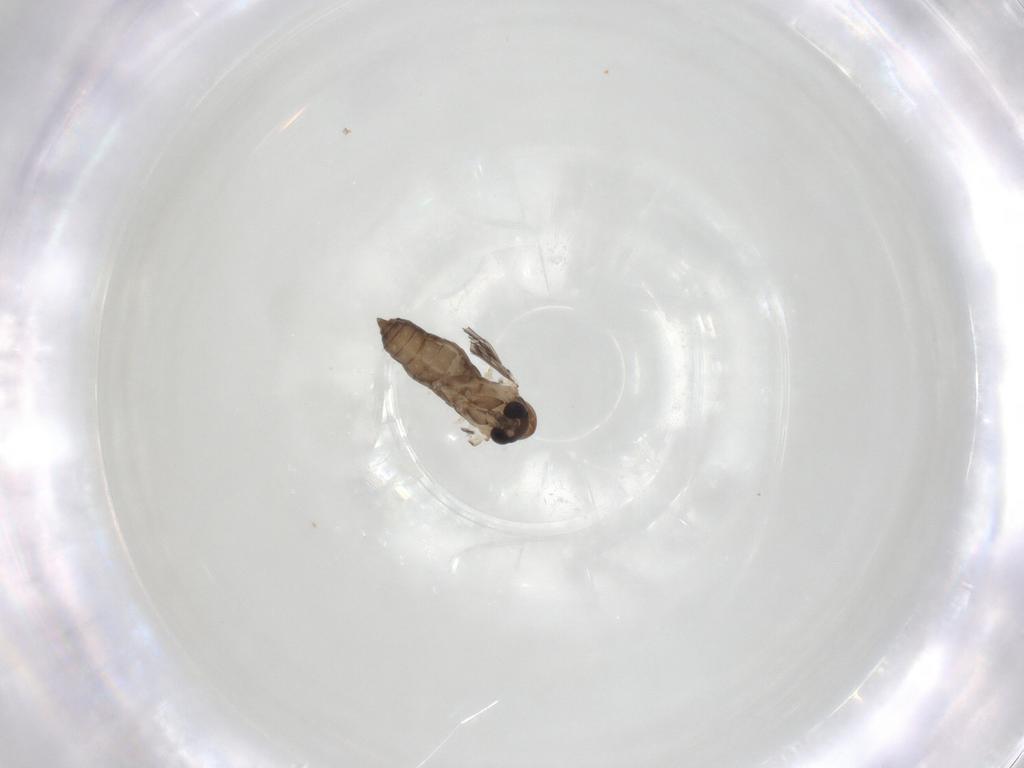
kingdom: Animalia
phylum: Arthropoda
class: Insecta
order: Diptera
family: Psychodidae
